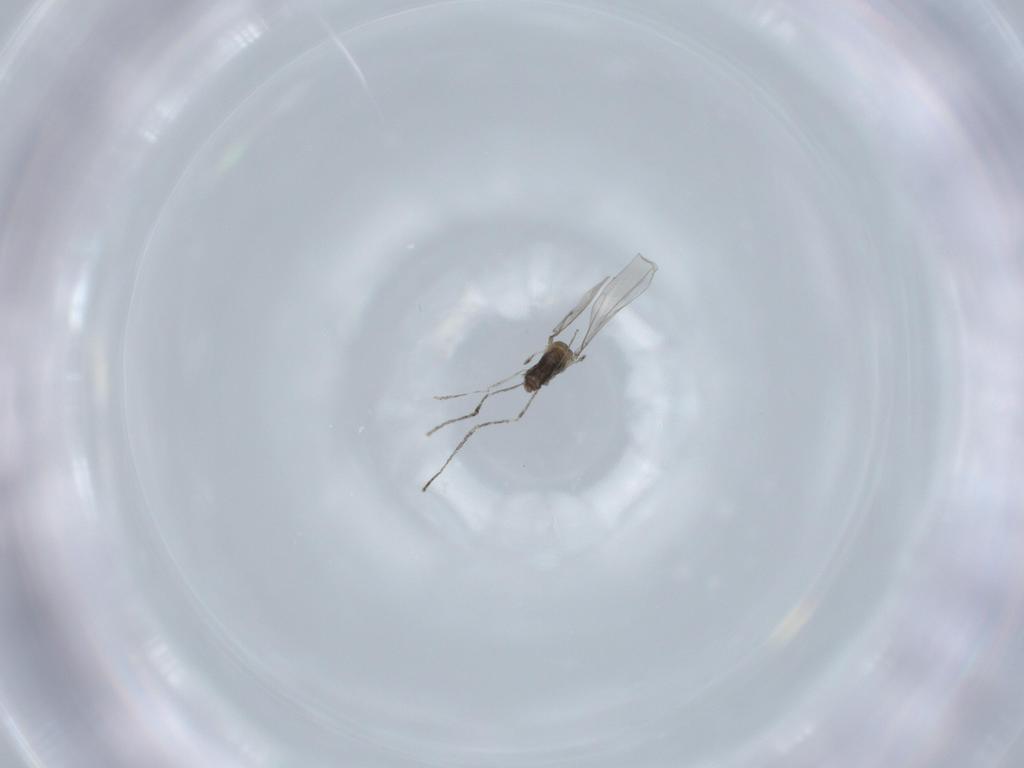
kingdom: Animalia
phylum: Arthropoda
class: Insecta
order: Diptera
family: Cecidomyiidae
